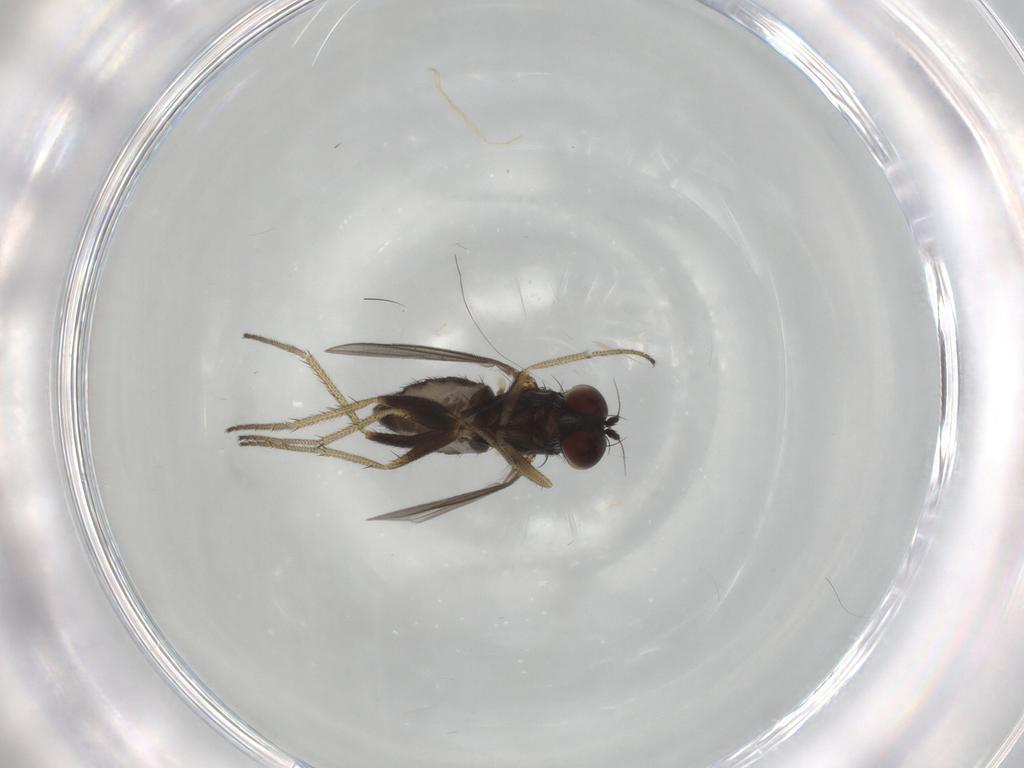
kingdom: Animalia
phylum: Arthropoda
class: Insecta
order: Diptera
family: Dolichopodidae
